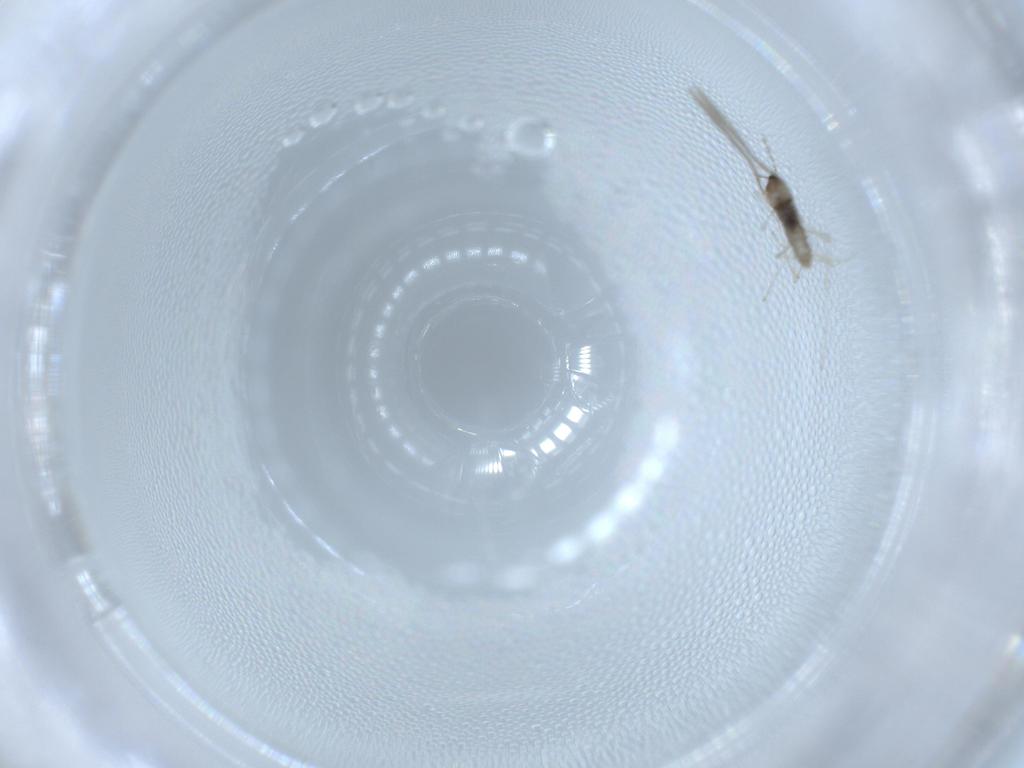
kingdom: Animalia
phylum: Arthropoda
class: Insecta
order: Diptera
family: Cecidomyiidae
